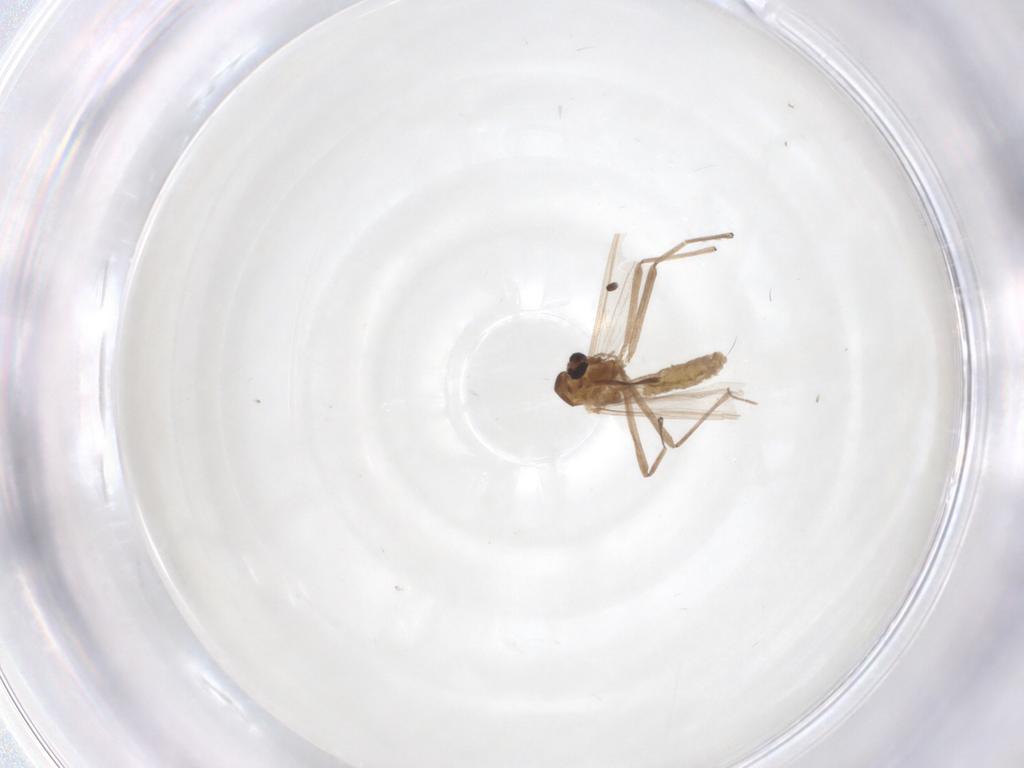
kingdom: Animalia
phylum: Arthropoda
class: Insecta
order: Diptera
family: Chironomidae
